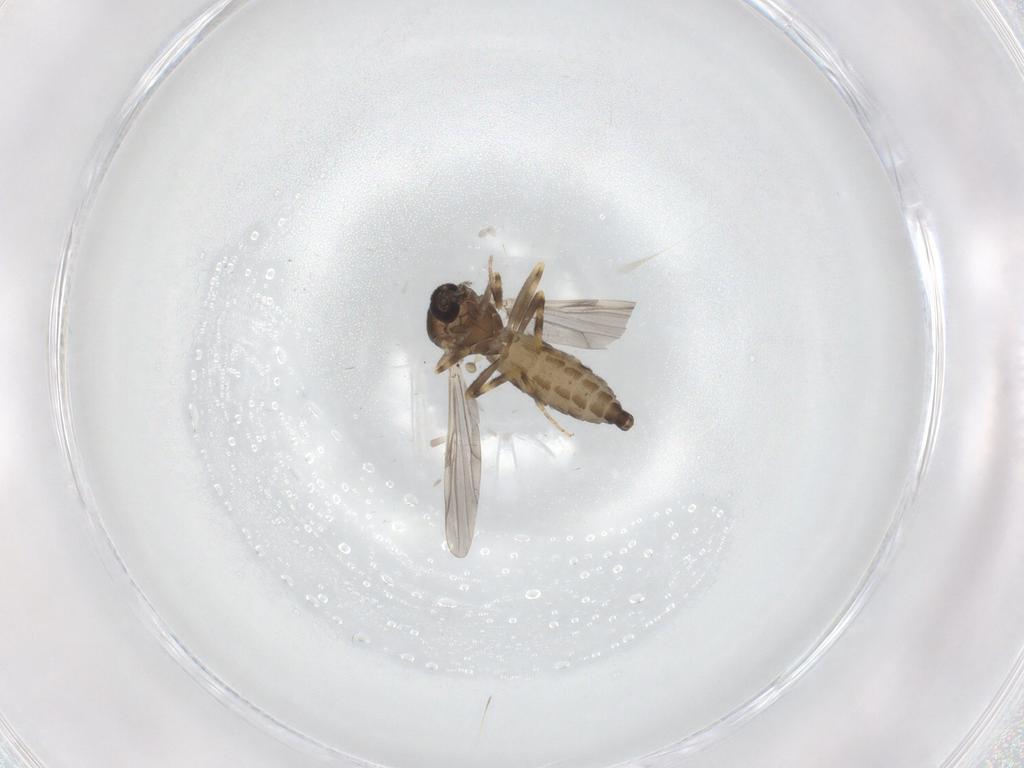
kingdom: Animalia
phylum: Arthropoda
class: Insecta
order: Diptera
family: Ceratopogonidae
